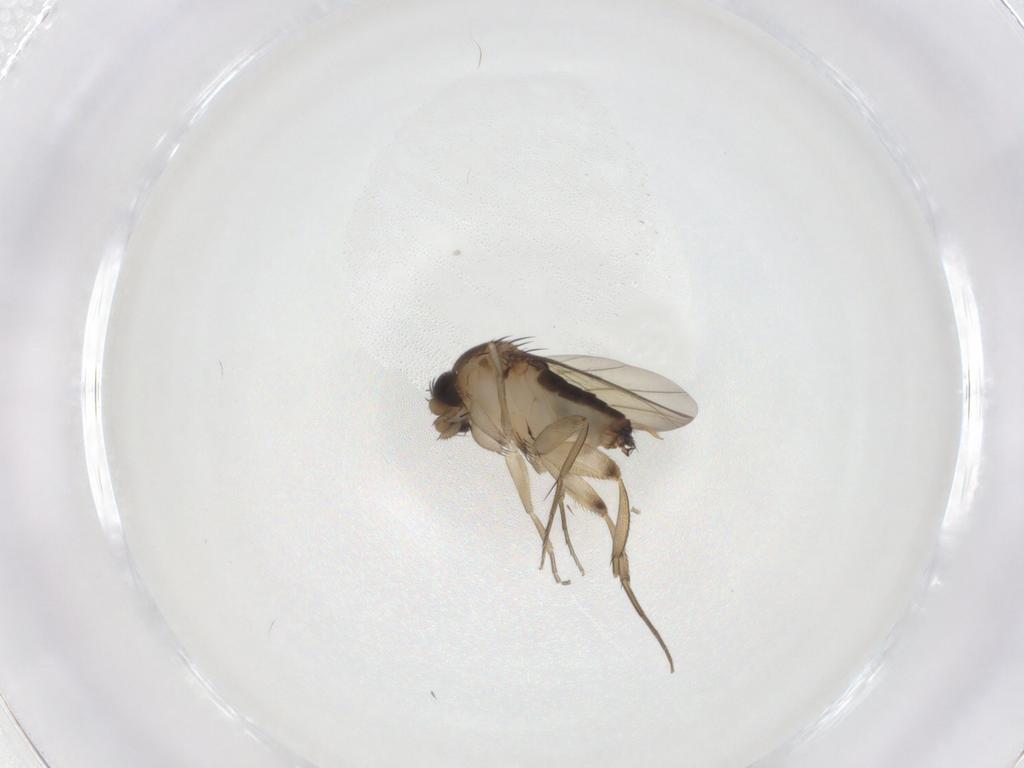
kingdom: Animalia
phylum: Arthropoda
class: Insecta
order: Diptera
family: Phoridae
